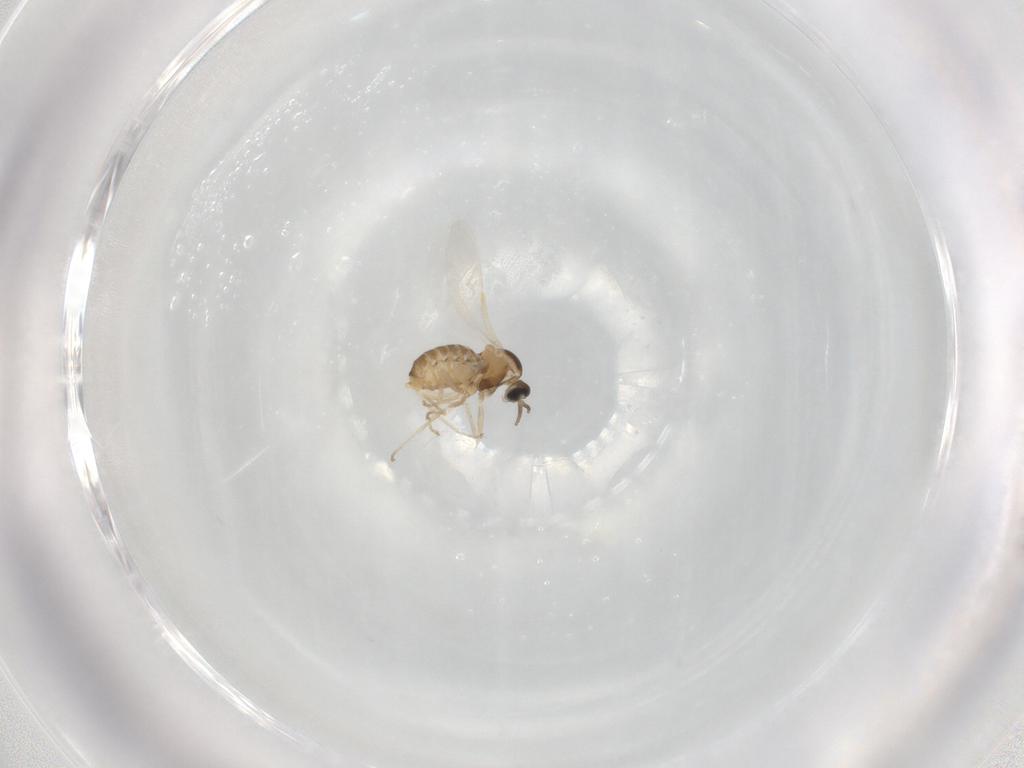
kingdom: Animalia
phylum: Arthropoda
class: Insecta
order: Diptera
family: Cecidomyiidae
